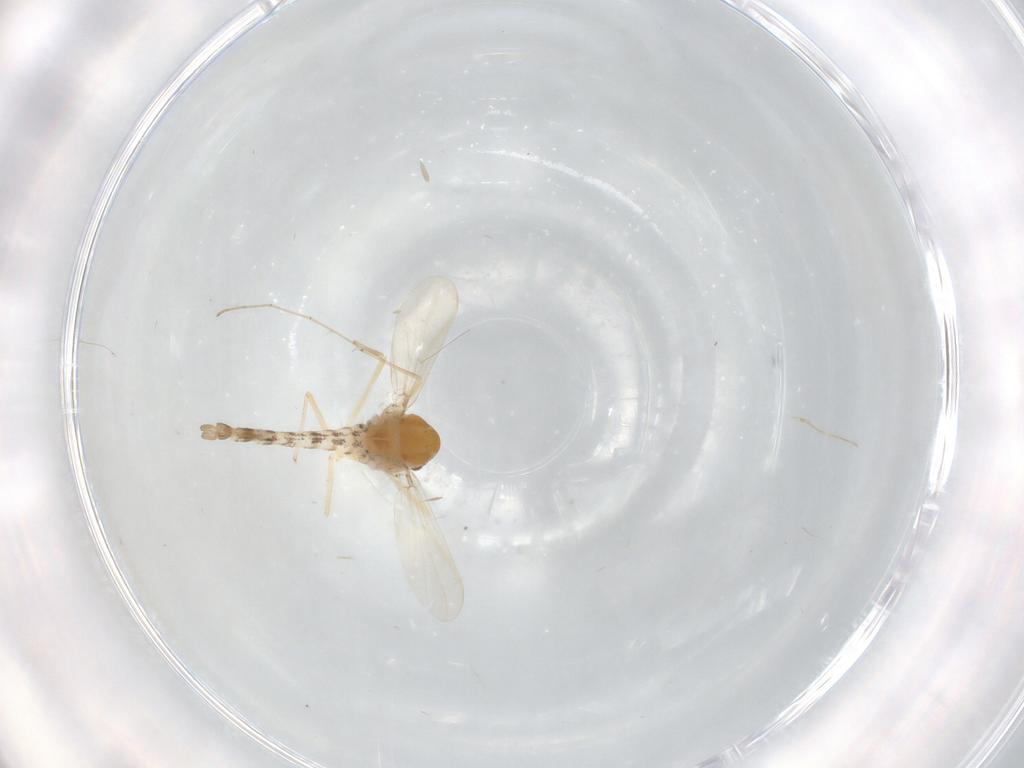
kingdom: Animalia
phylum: Arthropoda
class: Insecta
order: Diptera
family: Ceratopogonidae
